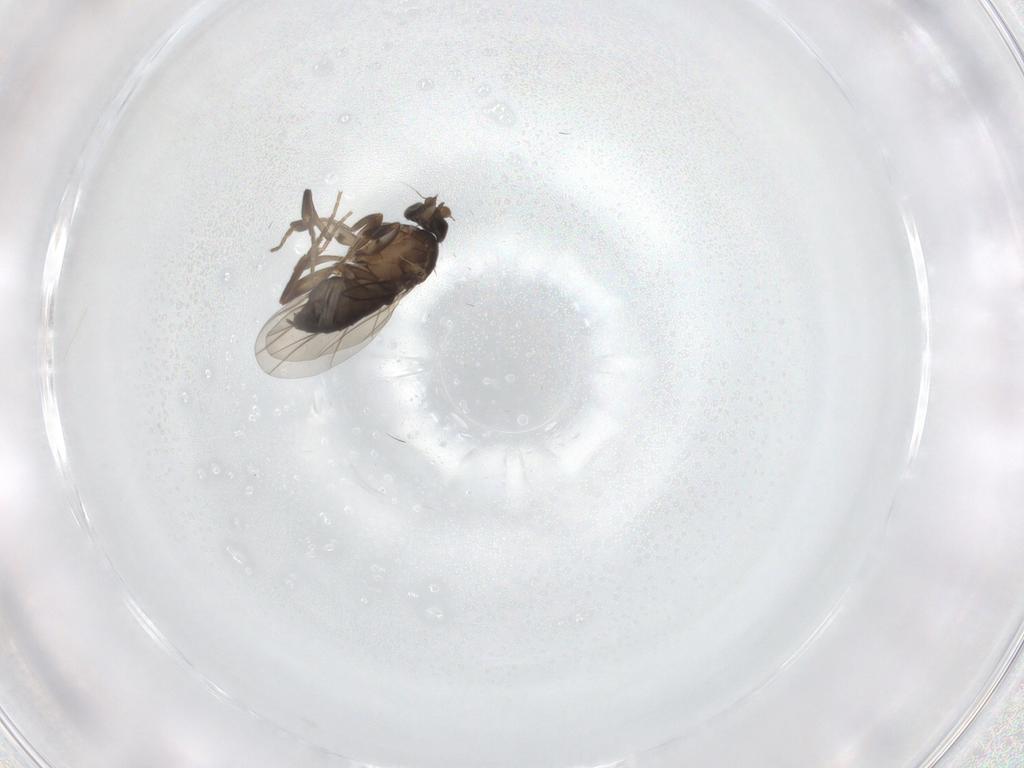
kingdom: Animalia
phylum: Arthropoda
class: Insecta
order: Diptera
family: Phoridae
